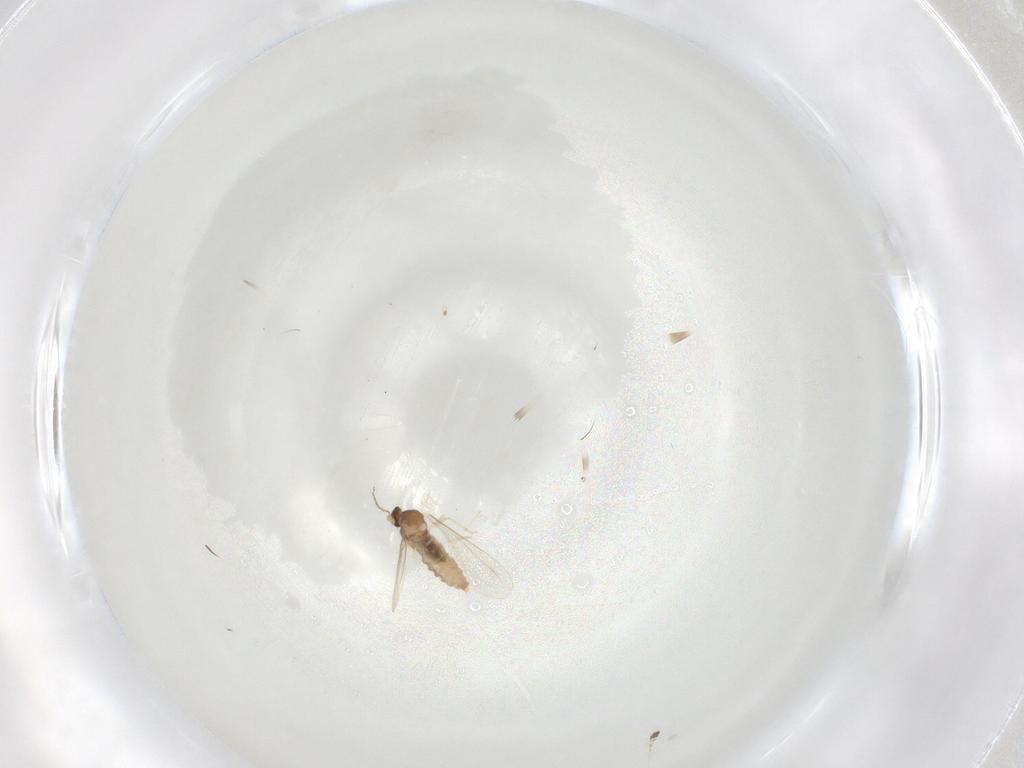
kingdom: Animalia
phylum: Arthropoda
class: Insecta
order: Diptera
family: Cecidomyiidae
